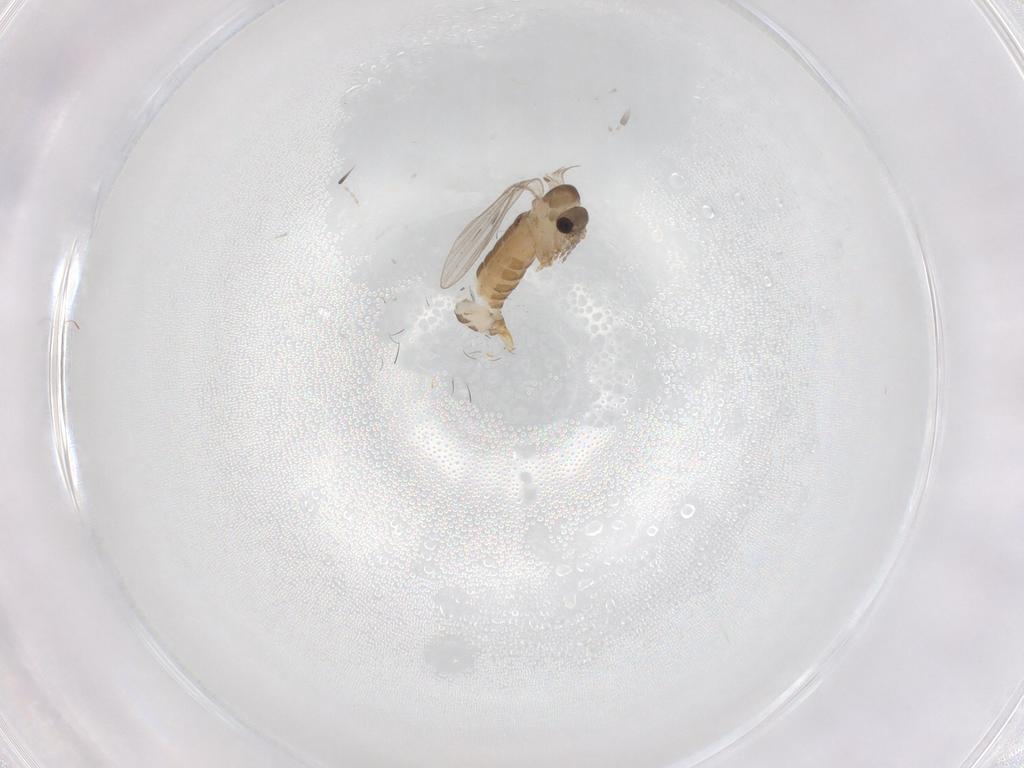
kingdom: Animalia
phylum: Arthropoda
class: Insecta
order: Diptera
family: Psychodidae
